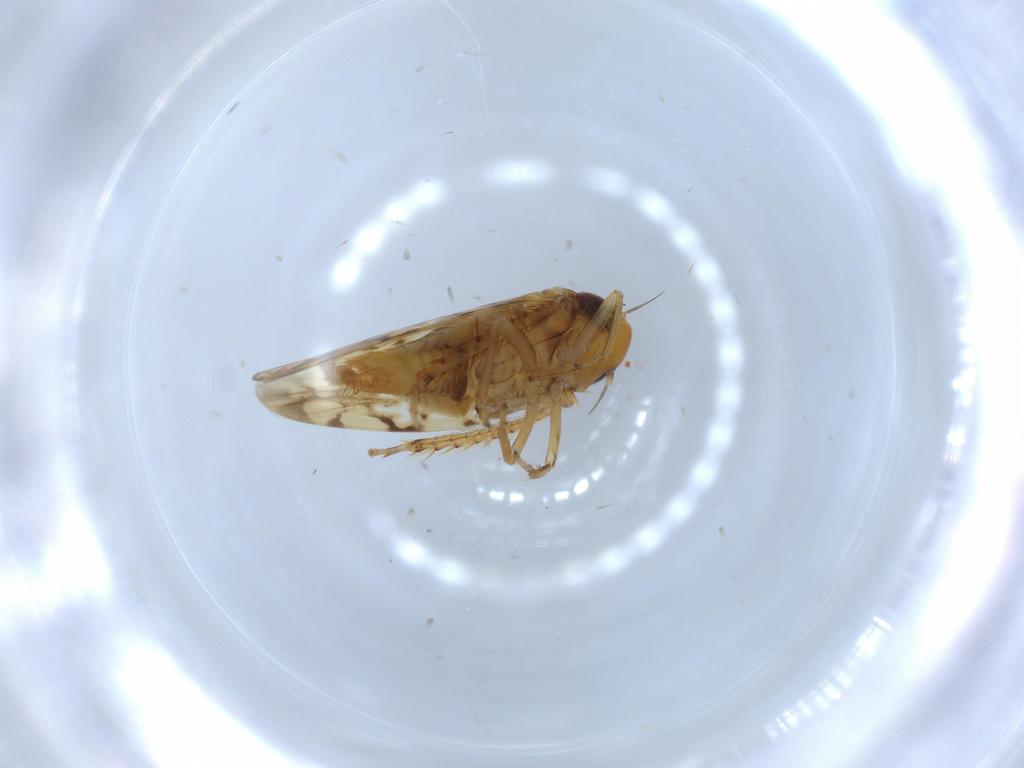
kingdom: Animalia
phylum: Arthropoda
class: Insecta
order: Hemiptera
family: Cicadellidae
